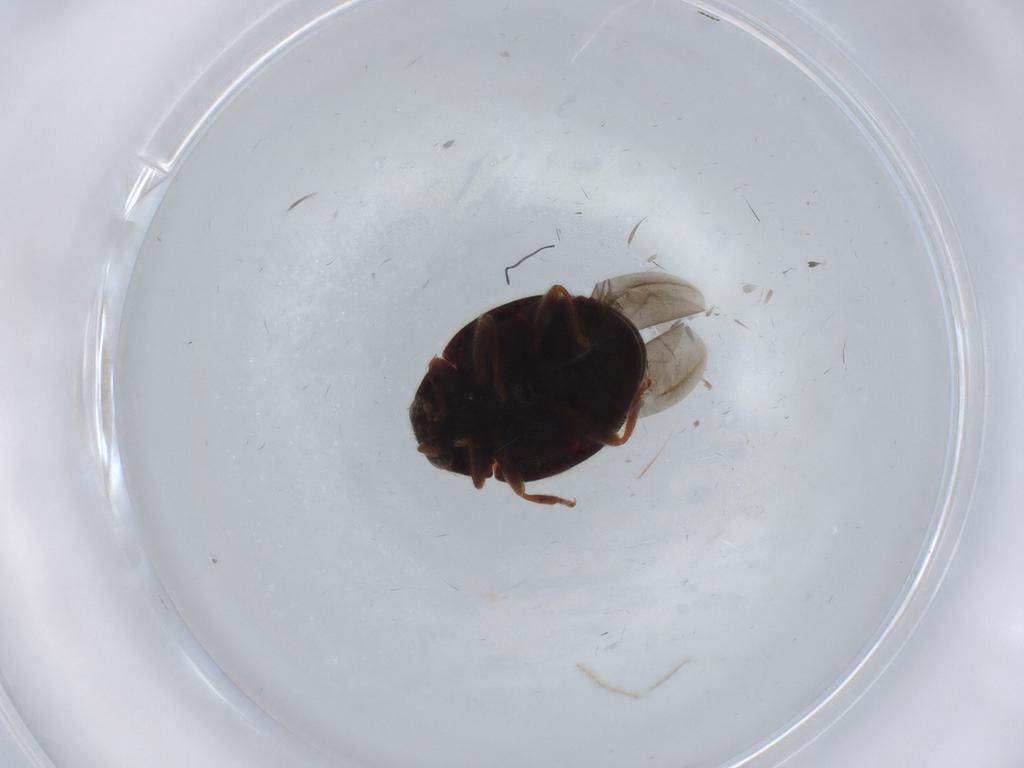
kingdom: Animalia
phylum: Arthropoda
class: Insecta
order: Coleoptera
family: Coccinellidae
